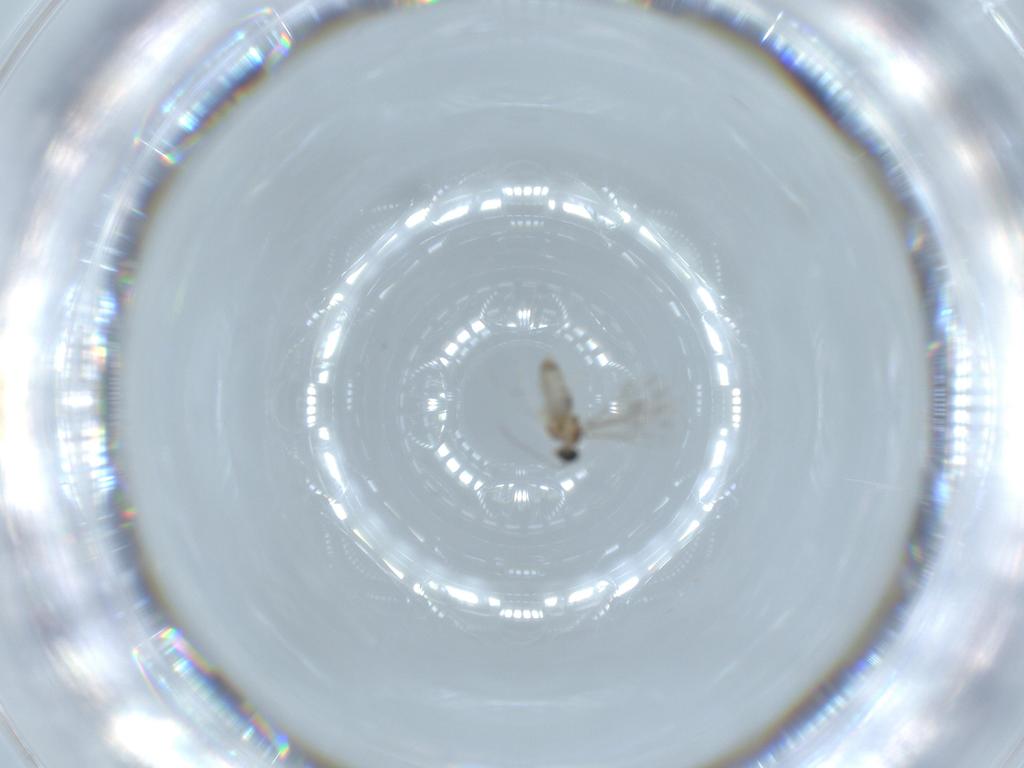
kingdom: Animalia
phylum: Arthropoda
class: Insecta
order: Diptera
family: Cecidomyiidae
